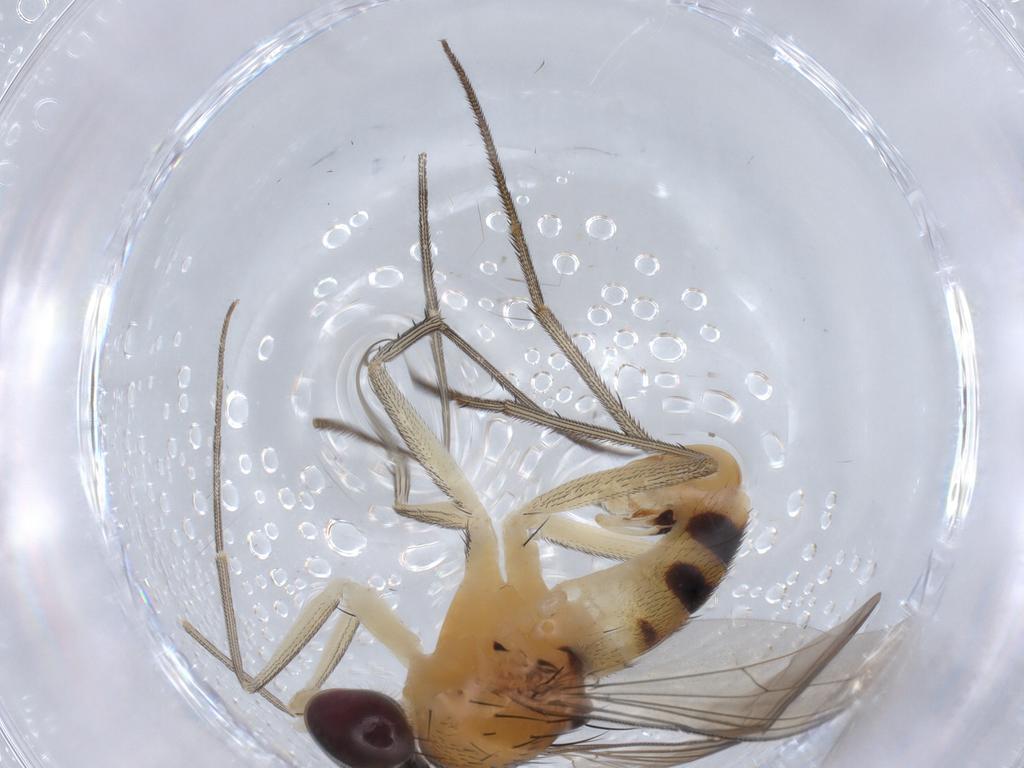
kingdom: Animalia
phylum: Arthropoda
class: Insecta
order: Diptera
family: Dolichopodidae
